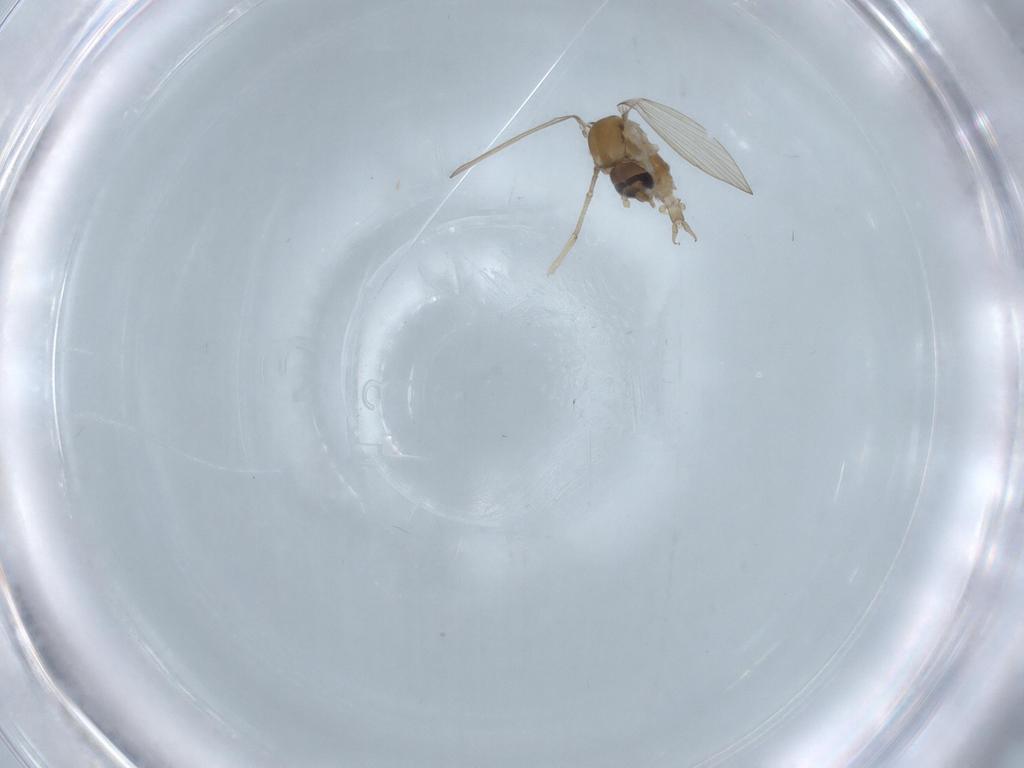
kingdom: Animalia
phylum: Arthropoda
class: Insecta
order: Diptera
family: Psychodidae
